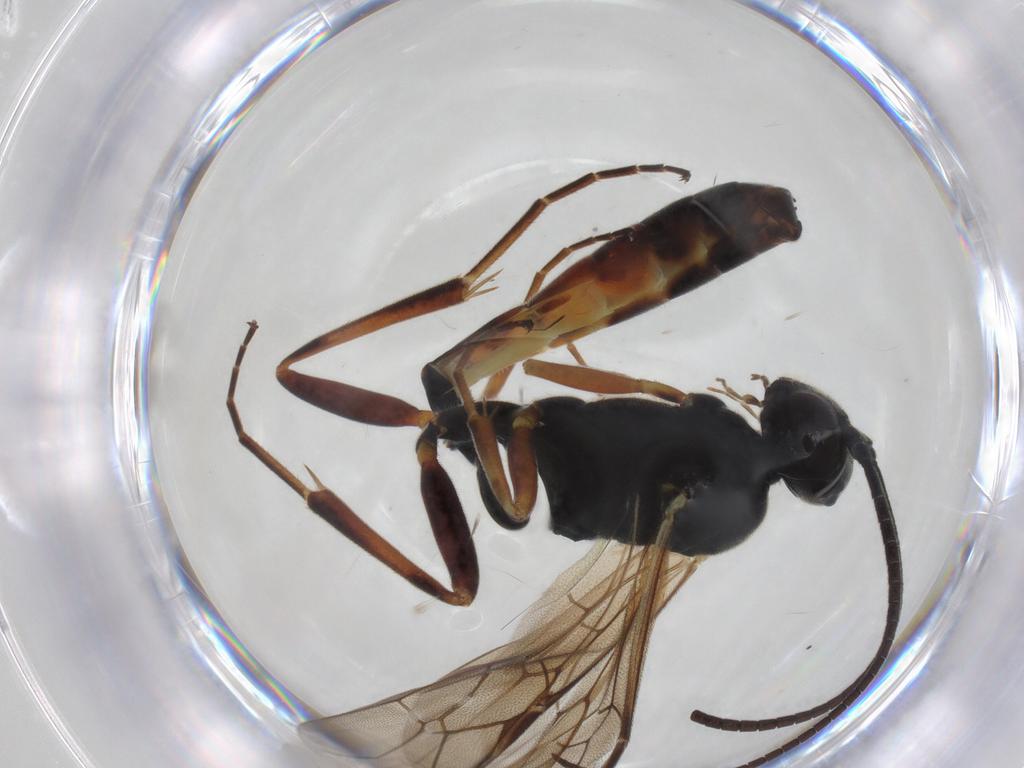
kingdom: Animalia
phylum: Arthropoda
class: Insecta
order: Hymenoptera
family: Ichneumonidae
